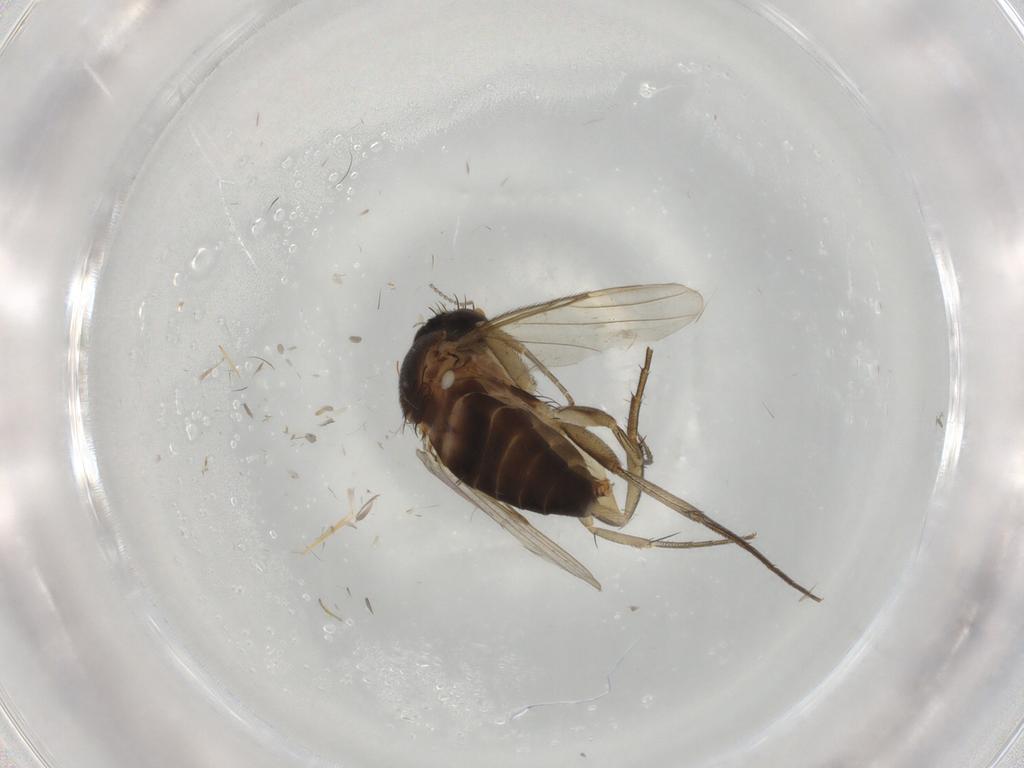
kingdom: Animalia
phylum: Arthropoda
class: Insecta
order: Diptera
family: Phoridae
